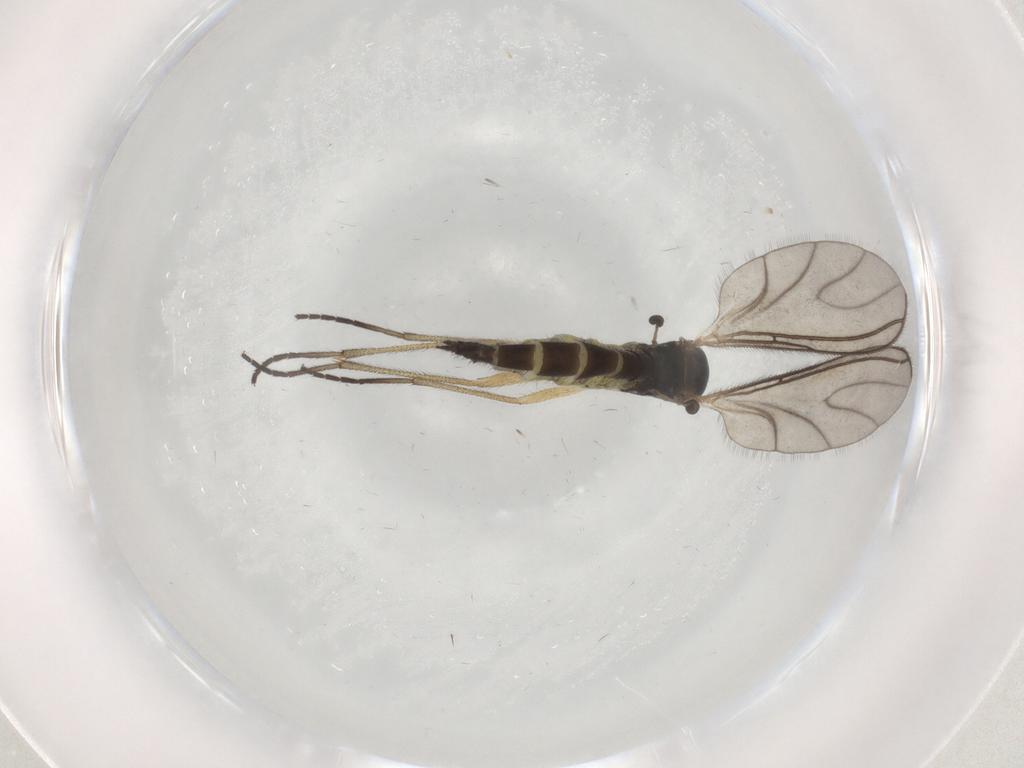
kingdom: Animalia
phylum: Arthropoda
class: Insecta
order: Diptera
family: Sciaridae
